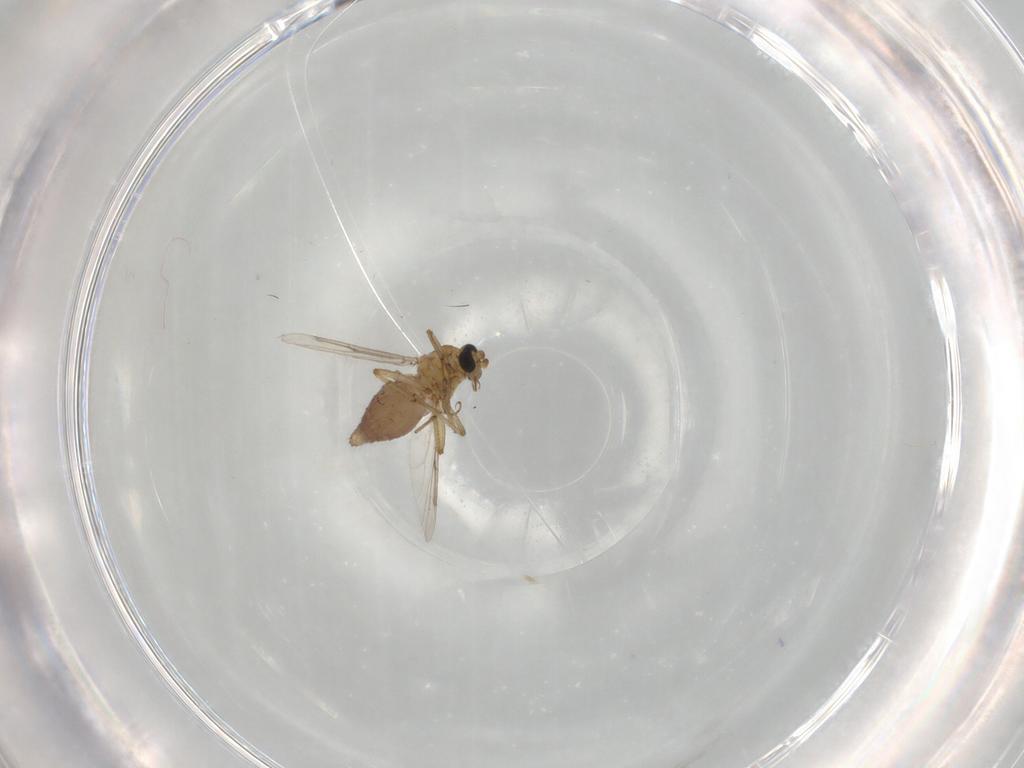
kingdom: Animalia
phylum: Arthropoda
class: Insecta
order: Diptera
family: Ceratopogonidae
